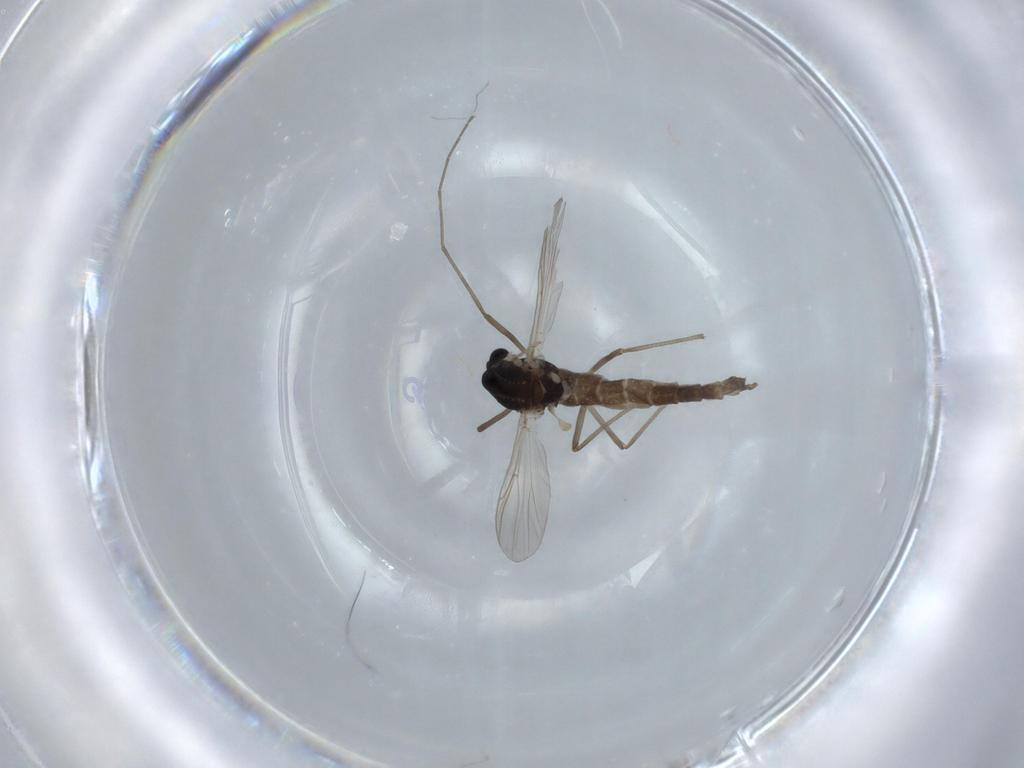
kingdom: Animalia
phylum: Arthropoda
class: Insecta
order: Diptera
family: Chironomidae
